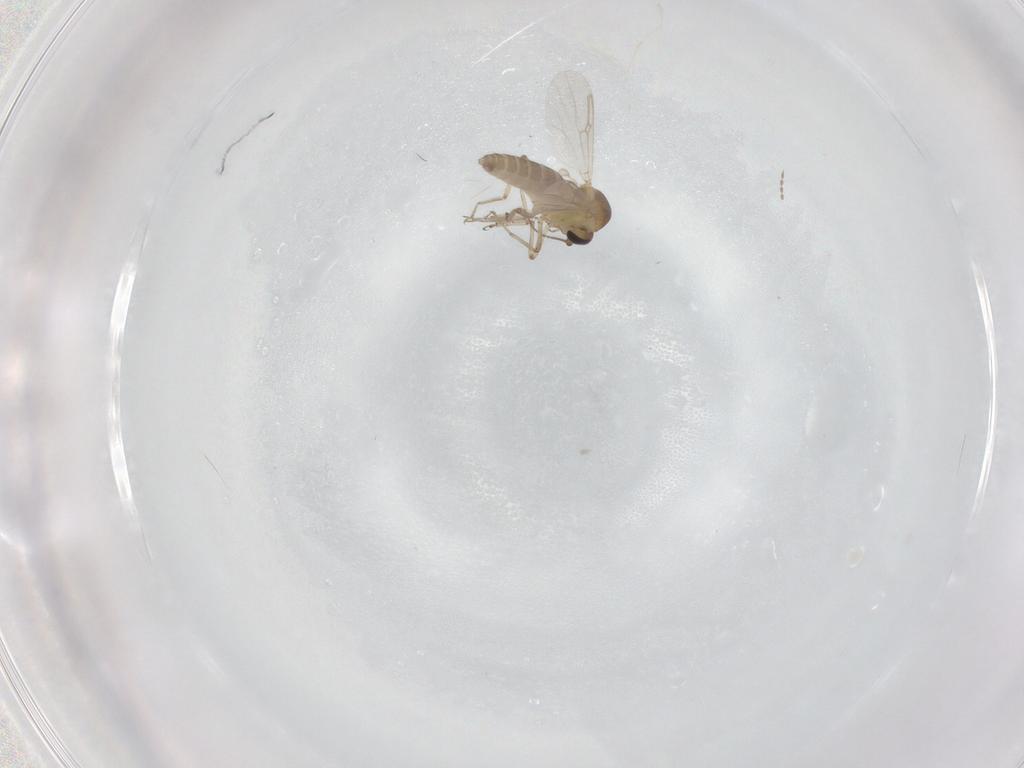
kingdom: Animalia
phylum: Arthropoda
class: Insecta
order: Diptera
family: Ceratopogonidae
